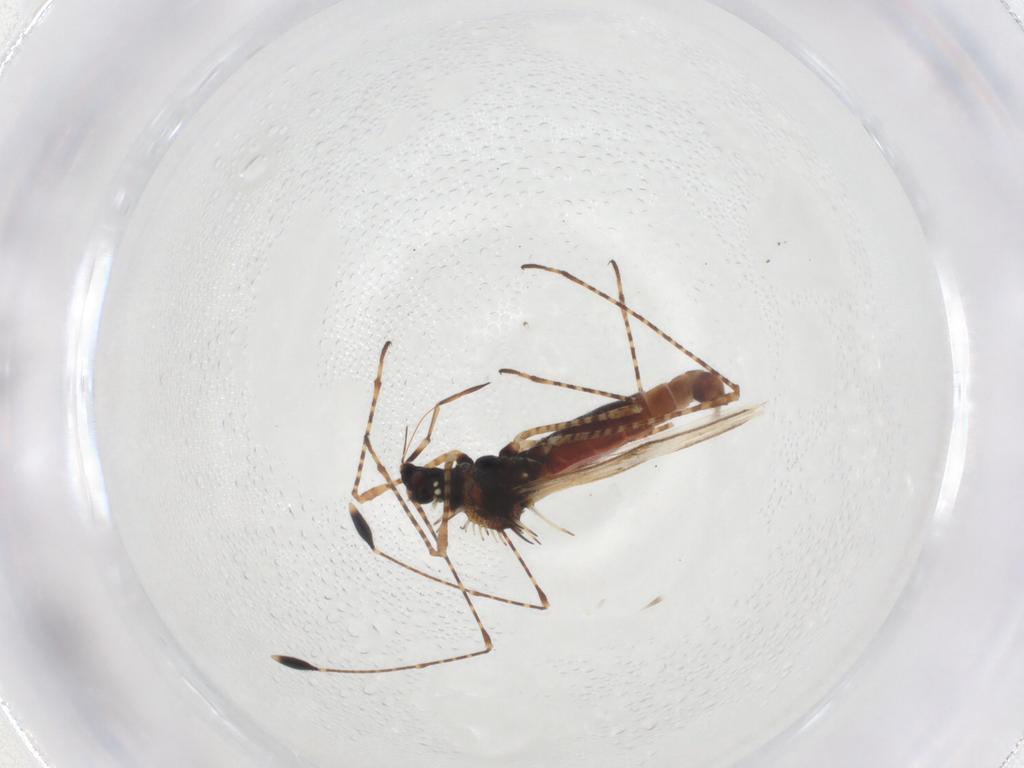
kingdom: Animalia
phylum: Arthropoda
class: Insecta
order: Hemiptera
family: Berytidae
